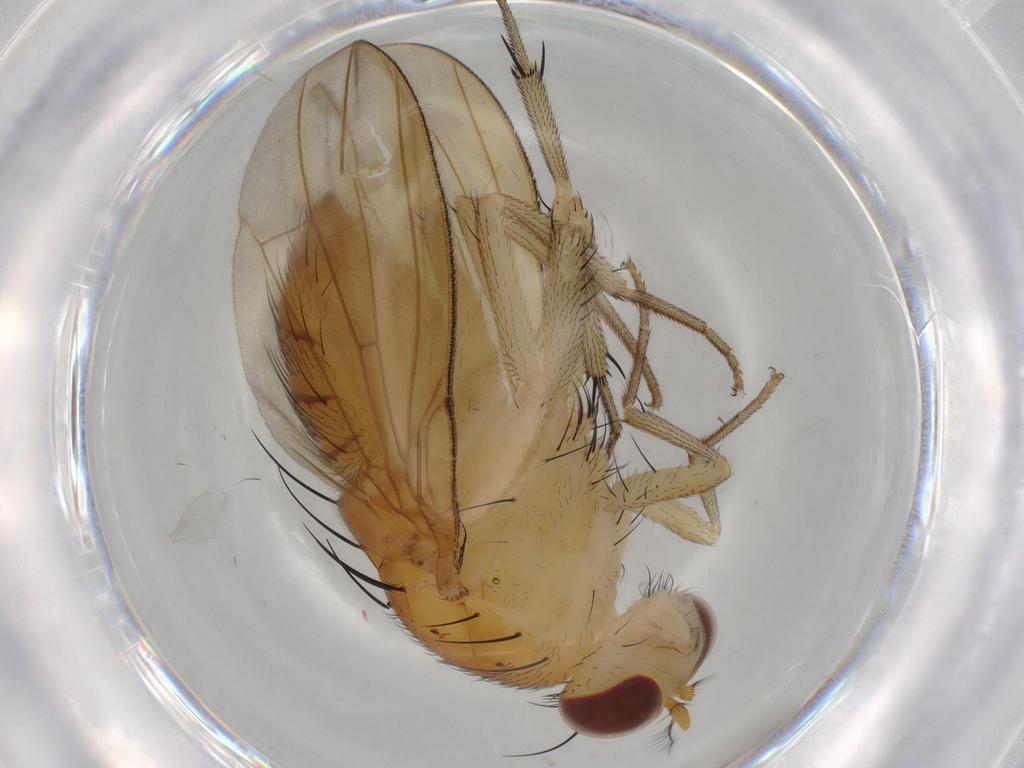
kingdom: Animalia
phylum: Arthropoda
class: Insecta
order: Diptera
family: Cecidomyiidae
